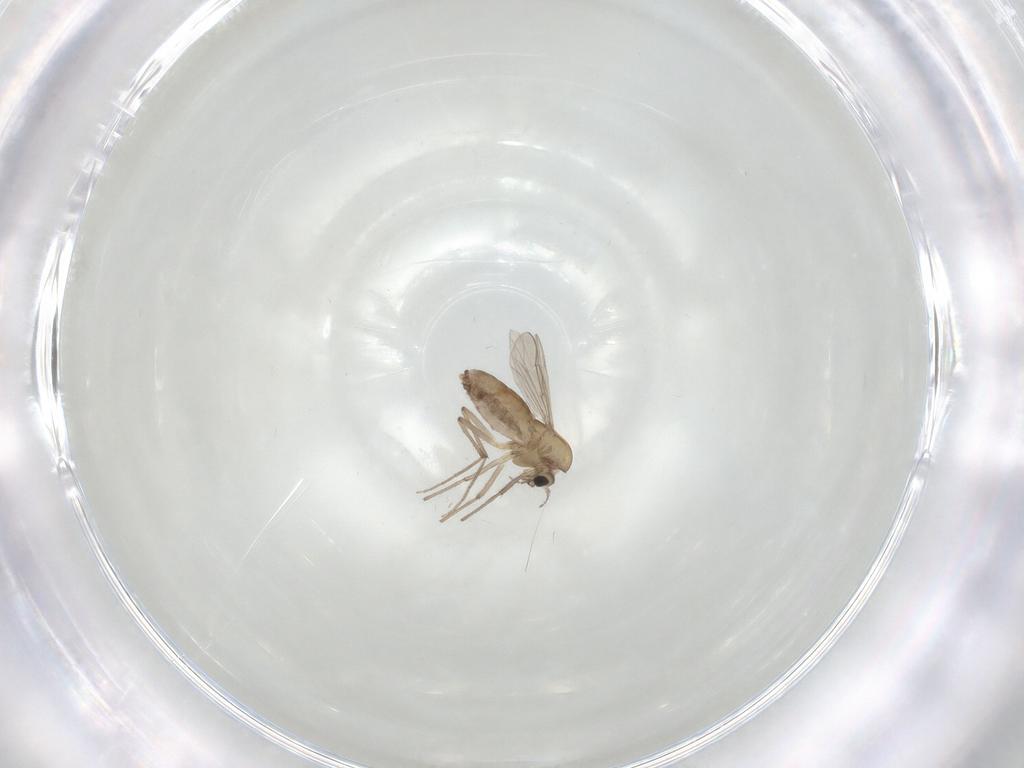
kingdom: Animalia
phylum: Arthropoda
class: Insecta
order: Diptera
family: Chironomidae
